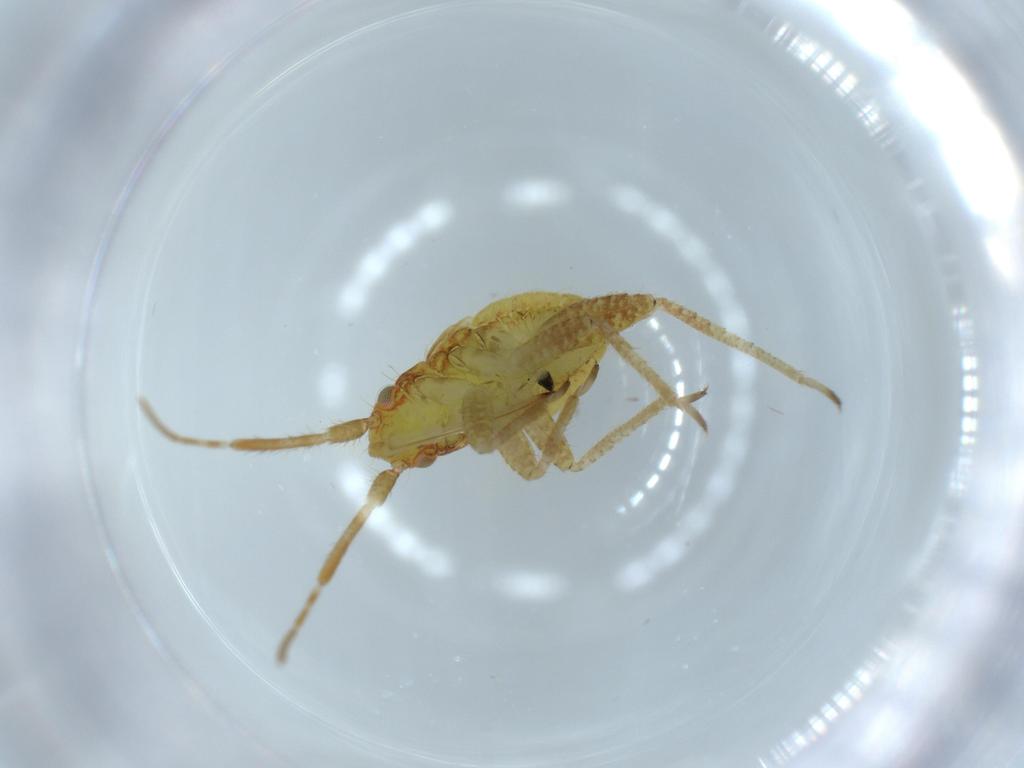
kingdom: Animalia
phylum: Arthropoda
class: Insecta
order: Hemiptera
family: Miridae
